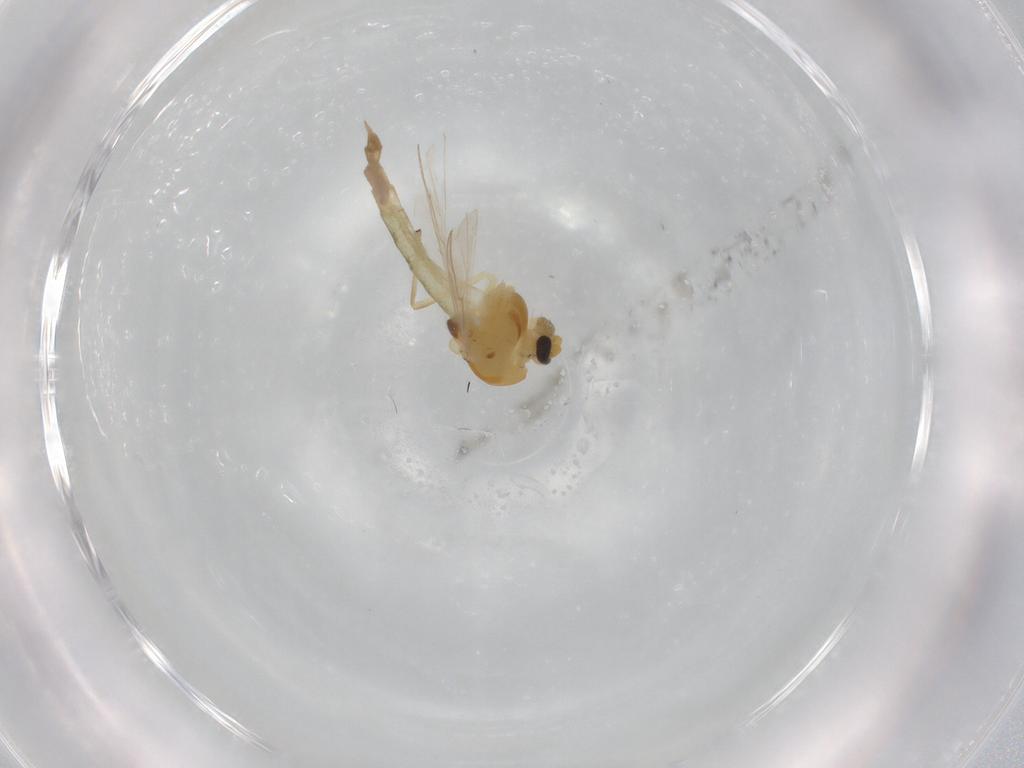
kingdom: Animalia
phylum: Arthropoda
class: Insecta
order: Diptera
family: Chironomidae
